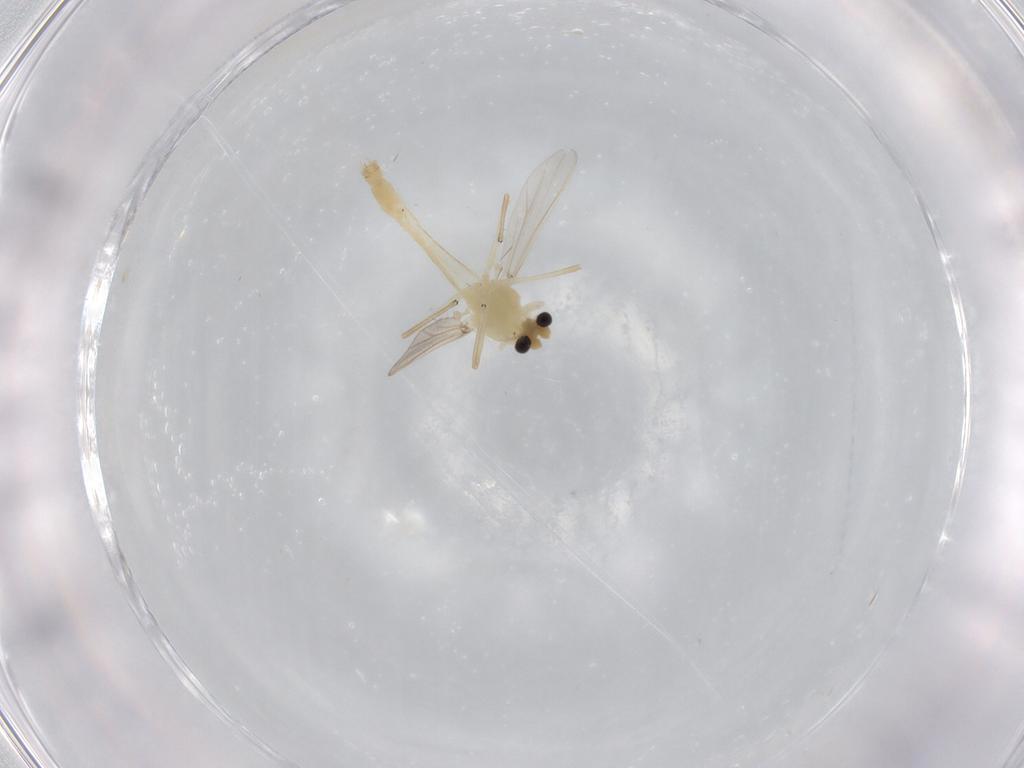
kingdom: Animalia
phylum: Arthropoda
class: Insecta
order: Diptera
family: Chironomidae
